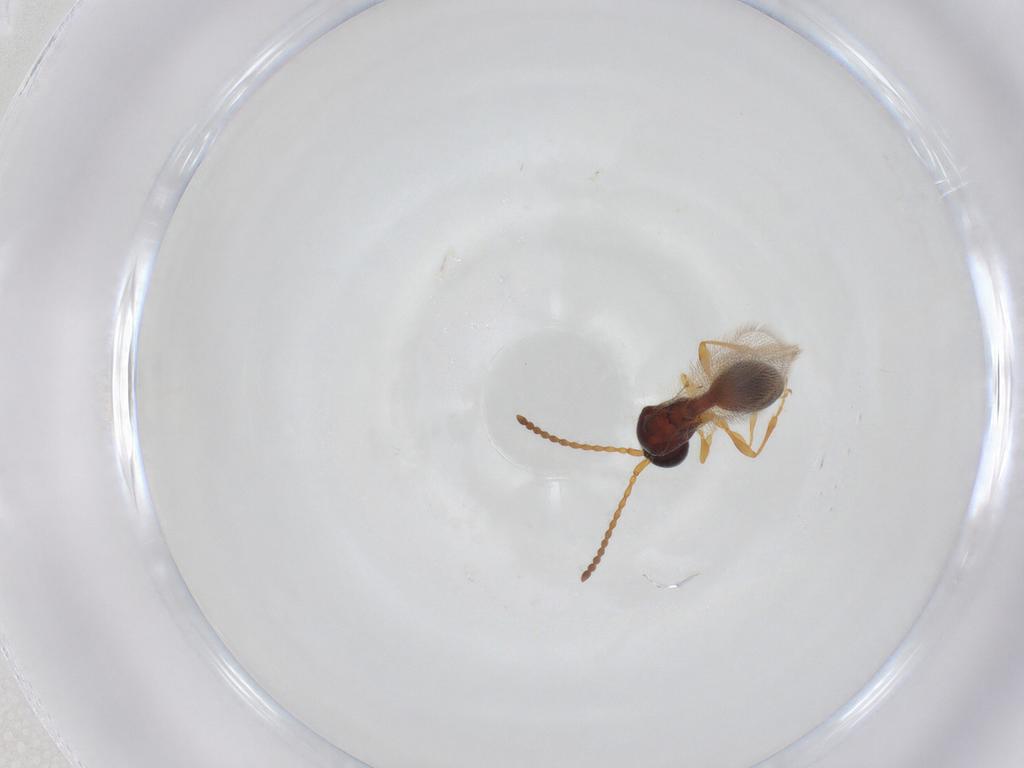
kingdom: Animalia
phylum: Arthropoda
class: Insecta
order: Hymenoptera
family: Diapriidae
